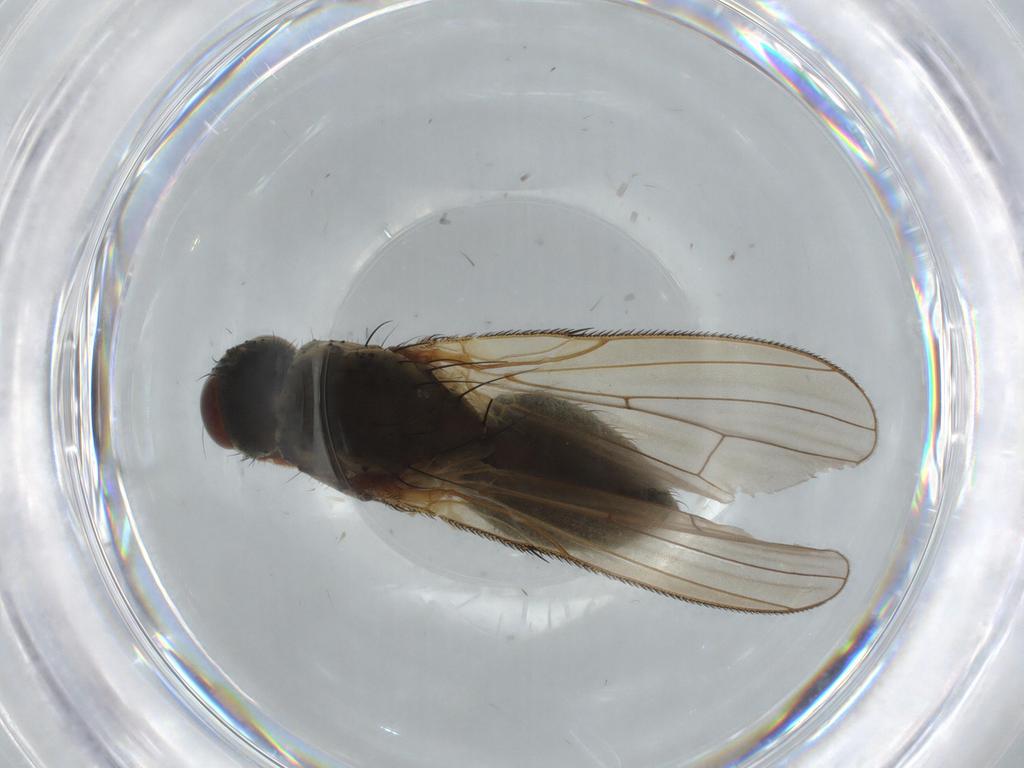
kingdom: Animalia
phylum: Arthropoda
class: Insecta
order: Diptera
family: Anthomyiidae
